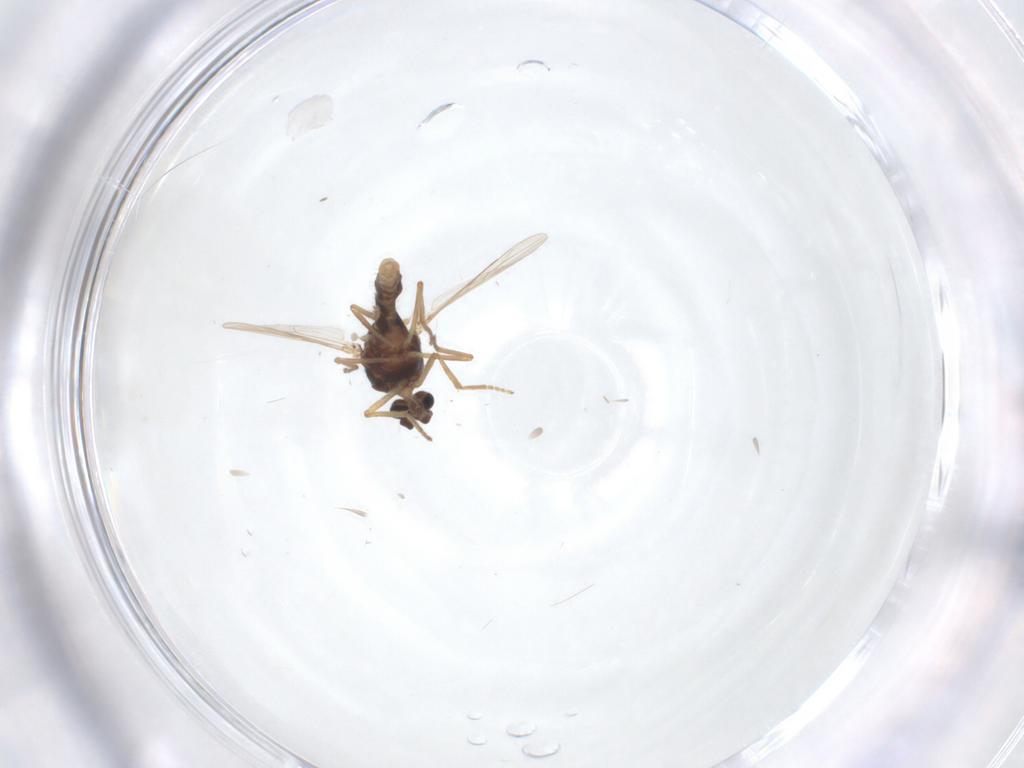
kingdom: Animalia
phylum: Arthropoda
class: Insecta
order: Diptera
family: Ceratopogonidae
